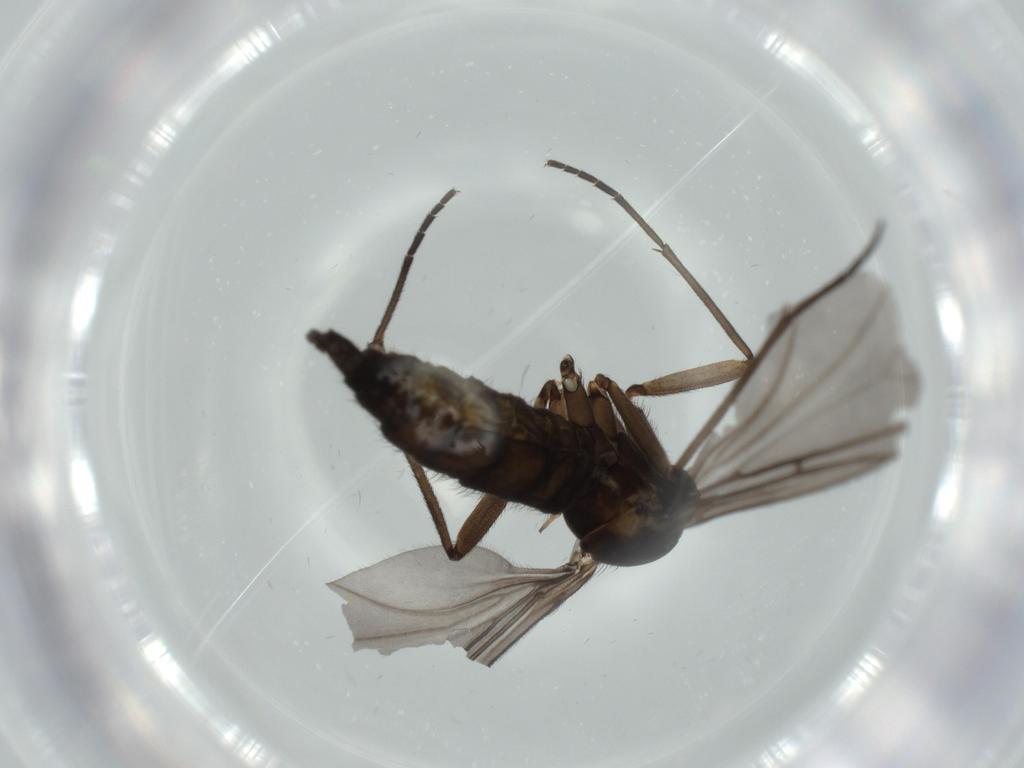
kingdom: Animalia
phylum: Arthropoda
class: Insecta
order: Diptera
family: Sciaridae
